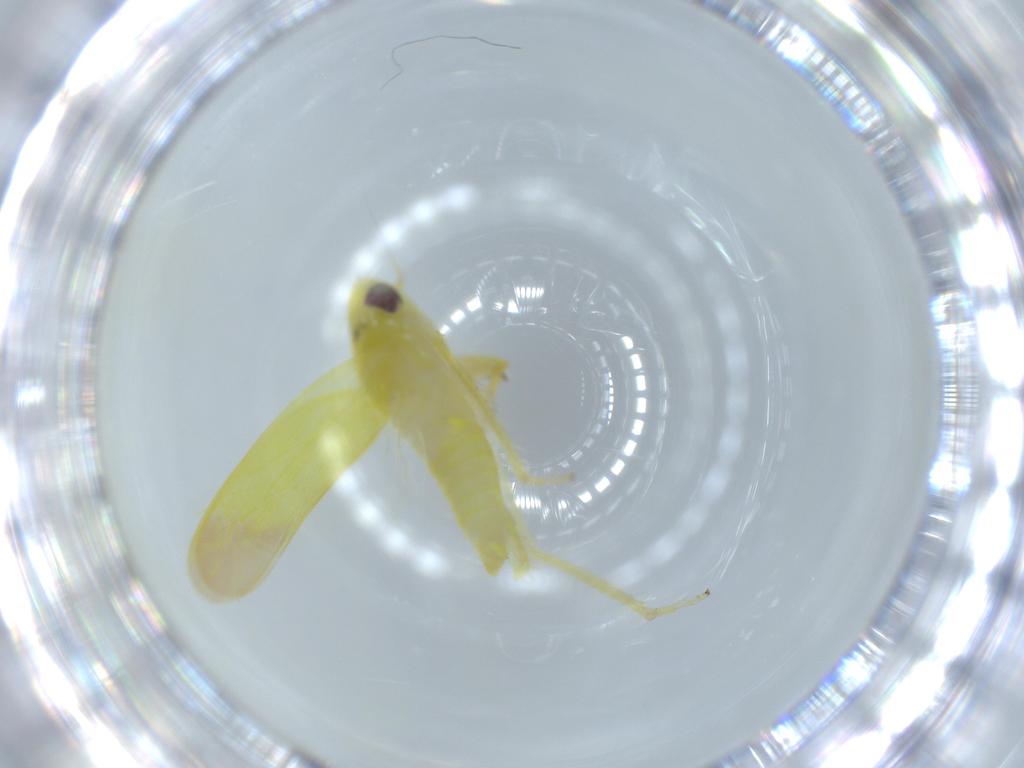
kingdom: Animalia
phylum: Arthropoda
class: Insecta
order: Hemiptera
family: Cicadellidae
